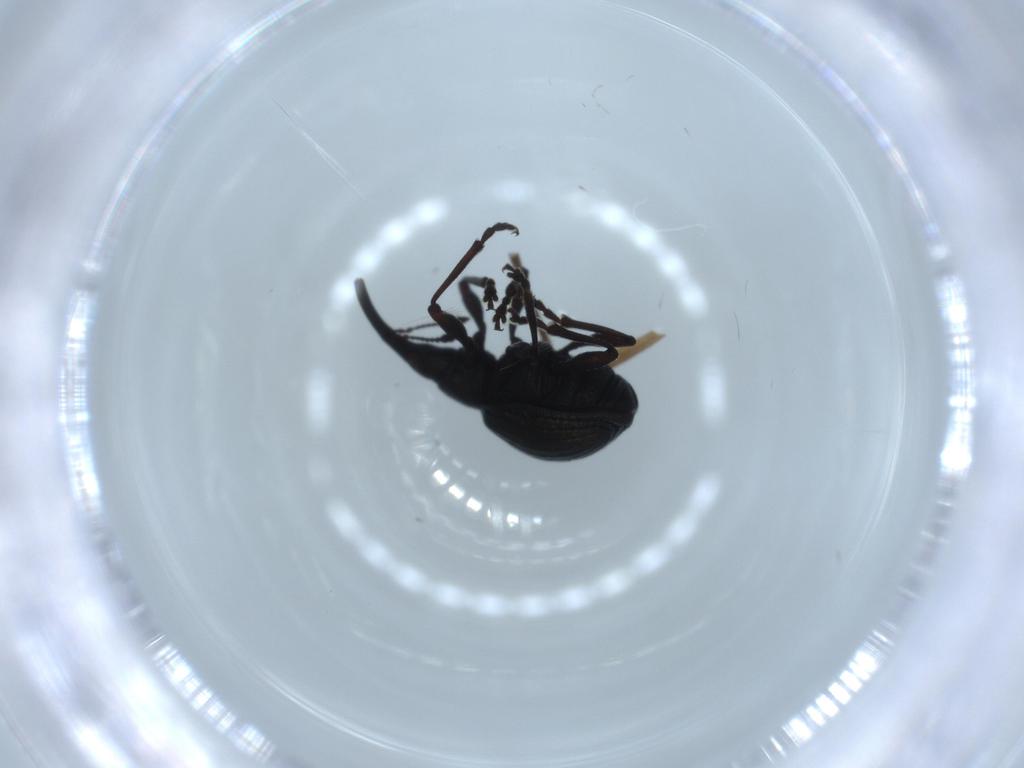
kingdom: Animalia
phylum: Arthropoda
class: Insecta
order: Coleoptera
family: Brentidae
